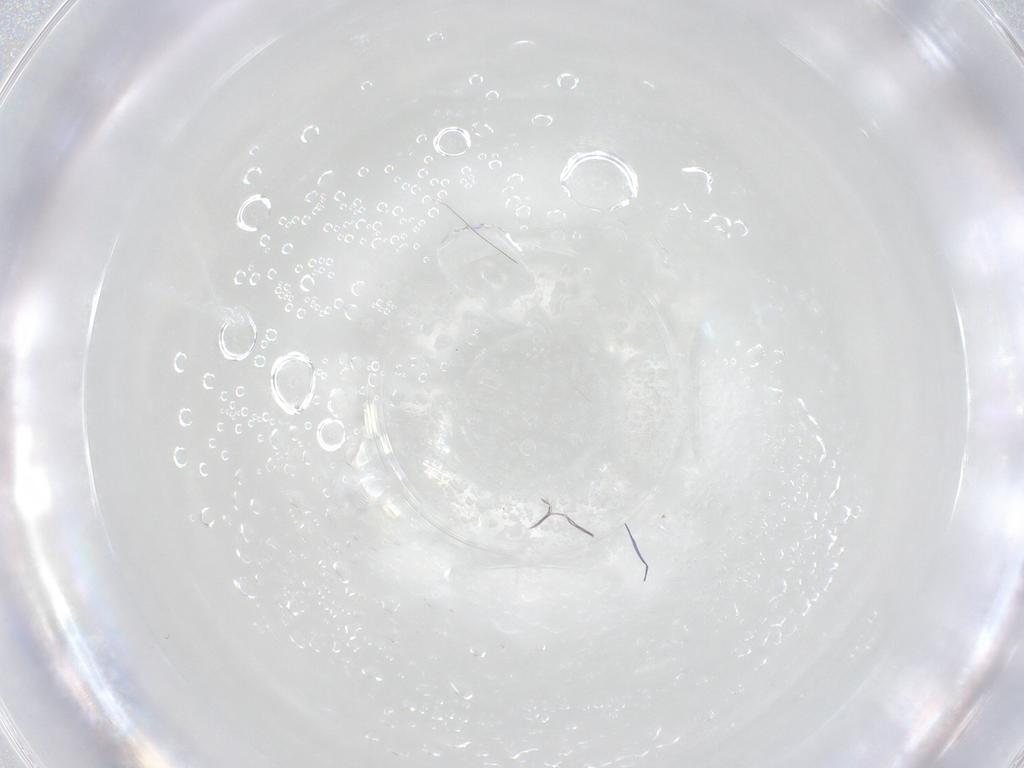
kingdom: Animalia
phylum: Arthropoda
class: Collembola
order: Symphypleona
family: Bourletiellidae
